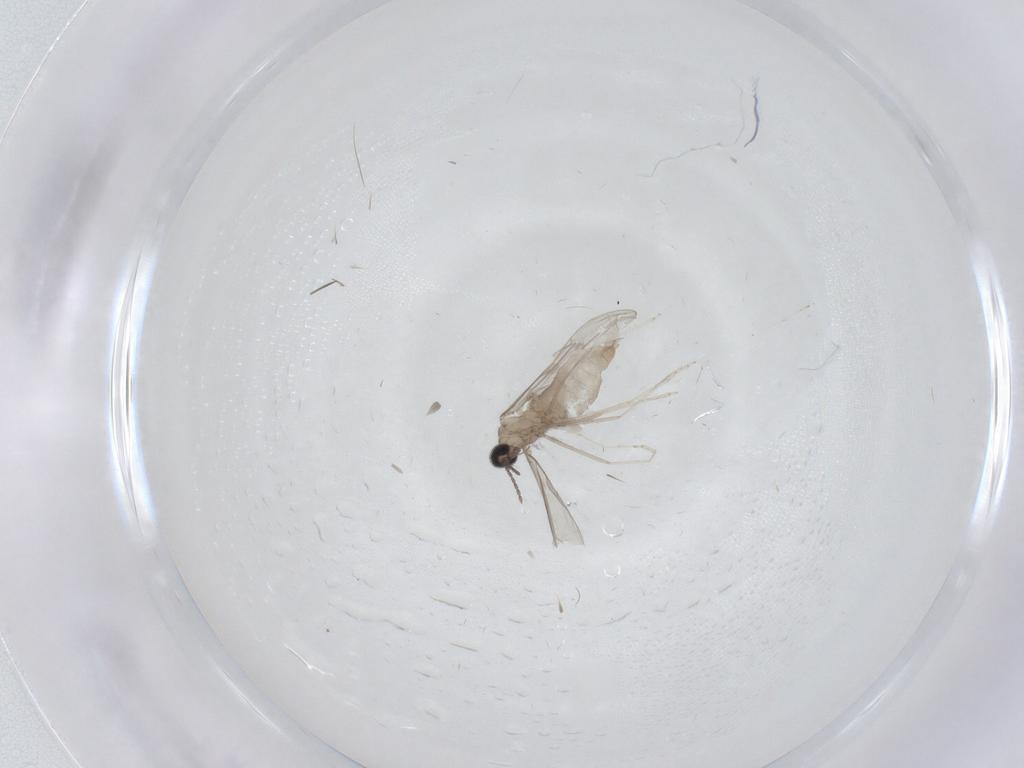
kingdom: Animalia
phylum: Arthropoda
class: Insecta
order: Diptera
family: Cecidomyiidae
